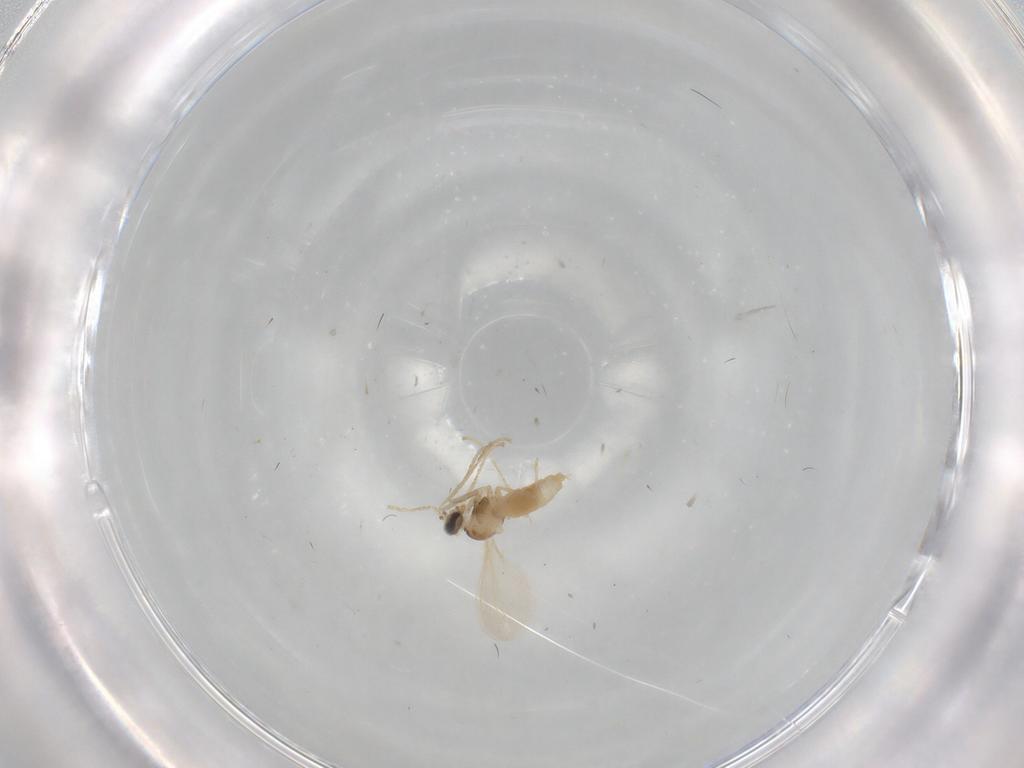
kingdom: Animalia
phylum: Arthropoda
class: Insecta
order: Diptera
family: Cecidomyiidae
